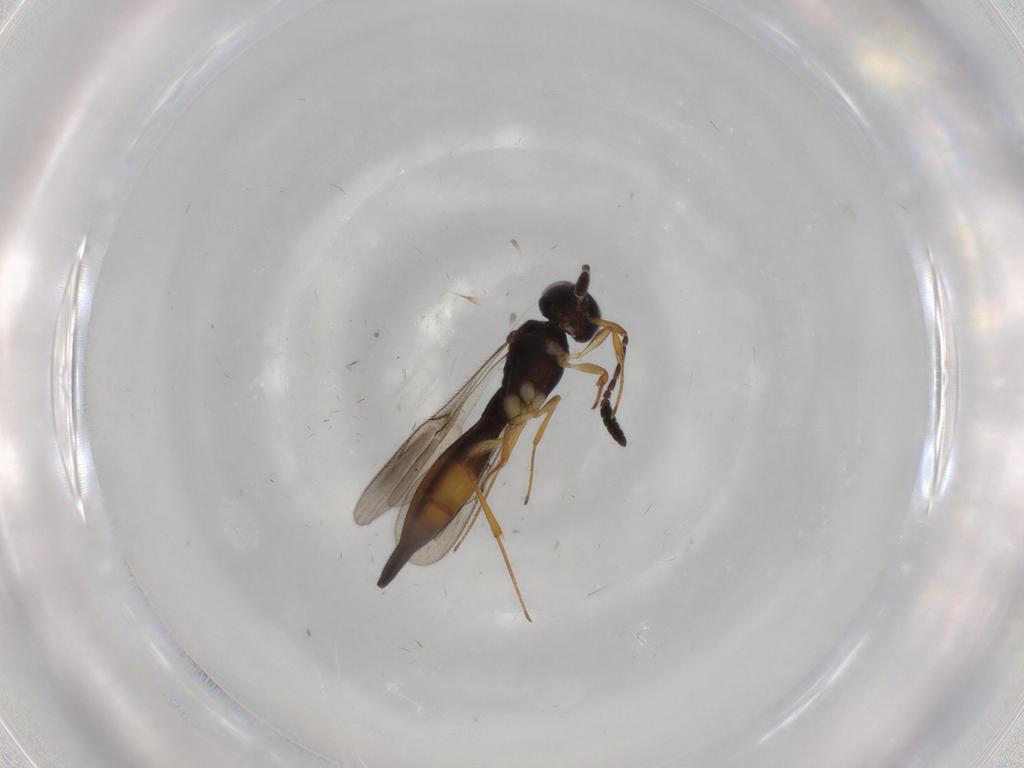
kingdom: Animalia
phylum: Arthropoda
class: Insecta
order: Hymenoptera
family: Scelionidae
